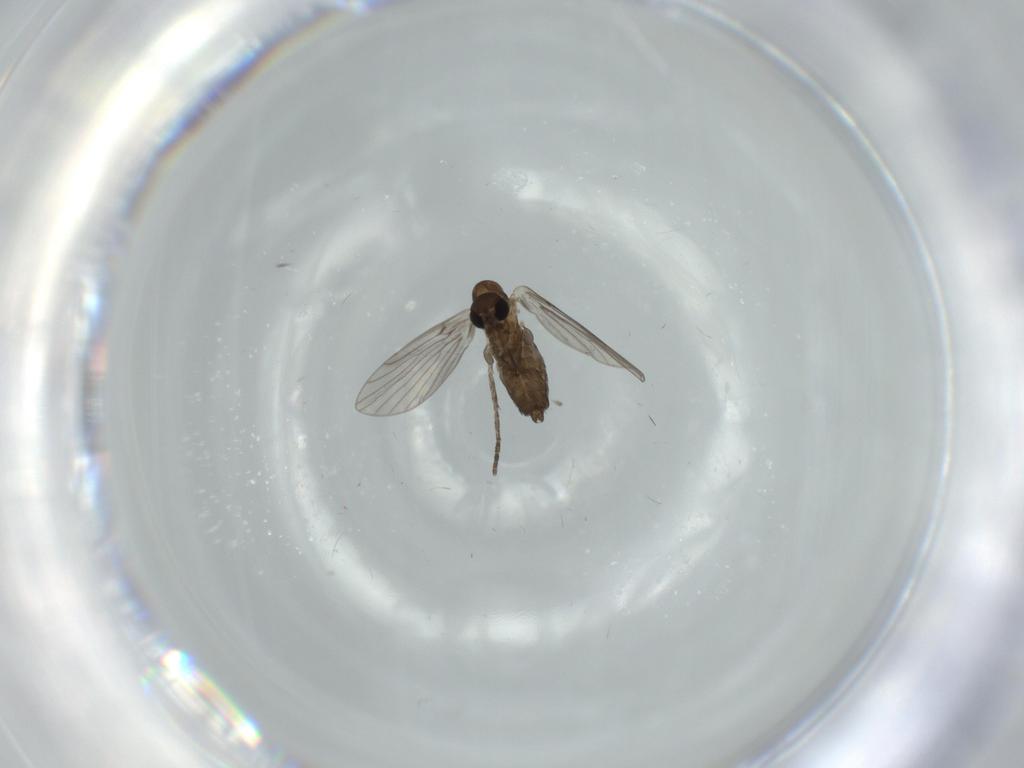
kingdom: Animalia
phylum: Arthropoda
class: Insecta
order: Diptera
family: Psychodidae
